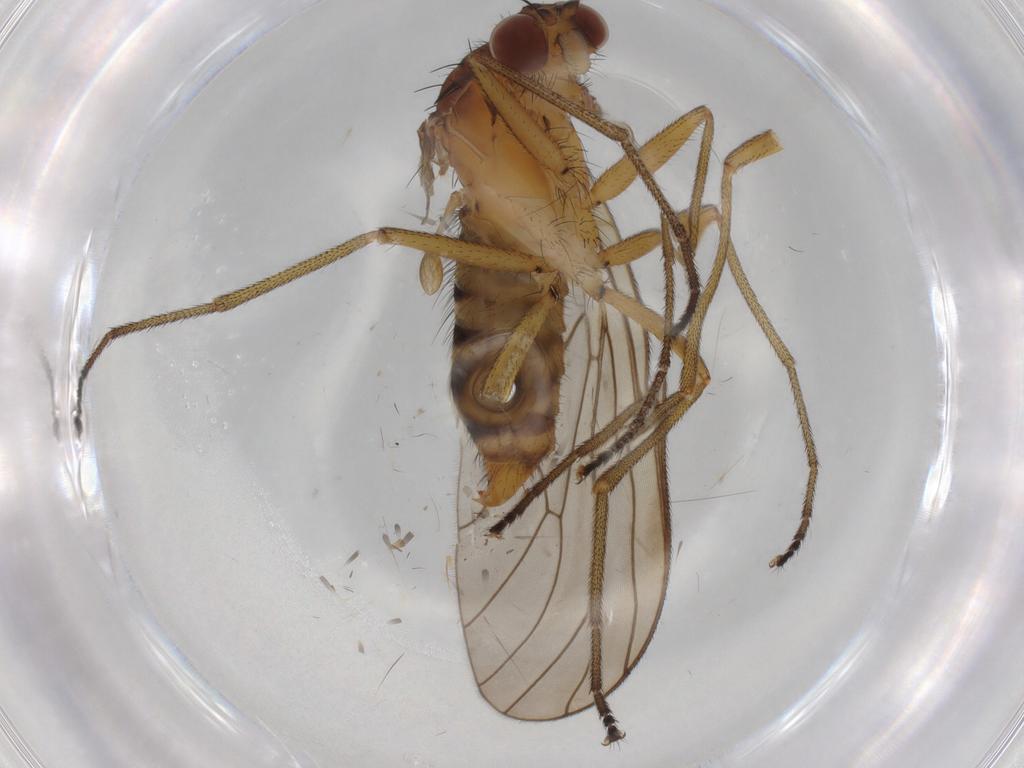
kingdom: Animalia
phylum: Arthropoda
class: Insecta
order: Diptera
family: Brachystomatidae
